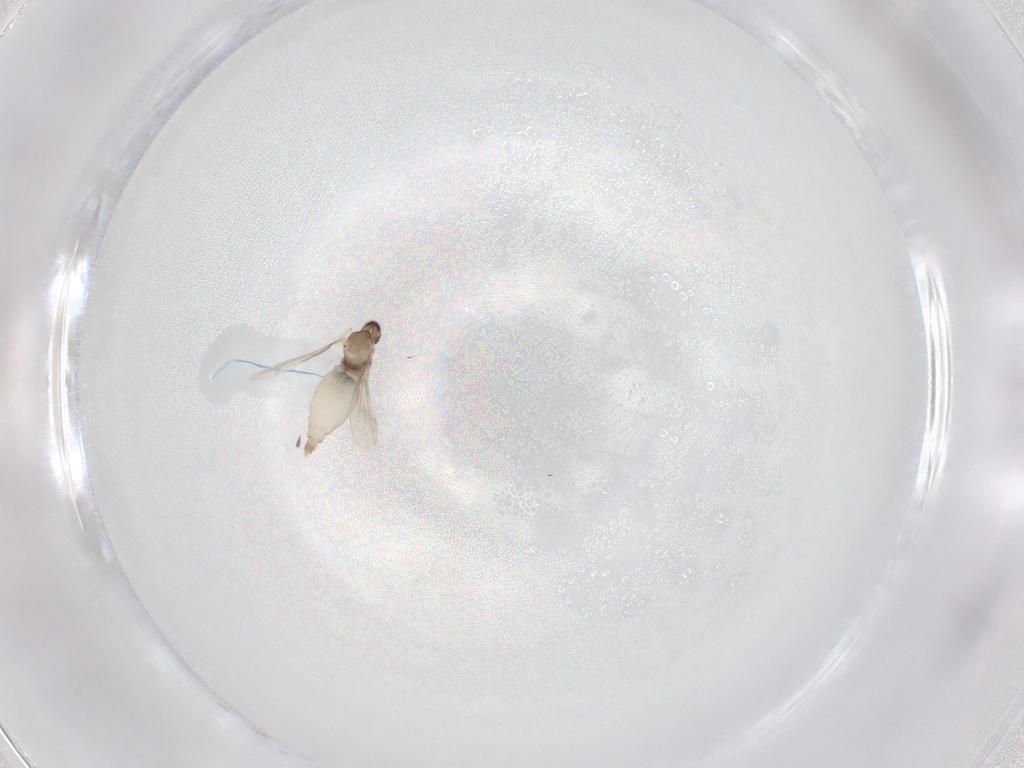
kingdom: Animalia
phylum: Arthropoda
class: Insecta
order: Diptera
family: Cecidomyiidae
